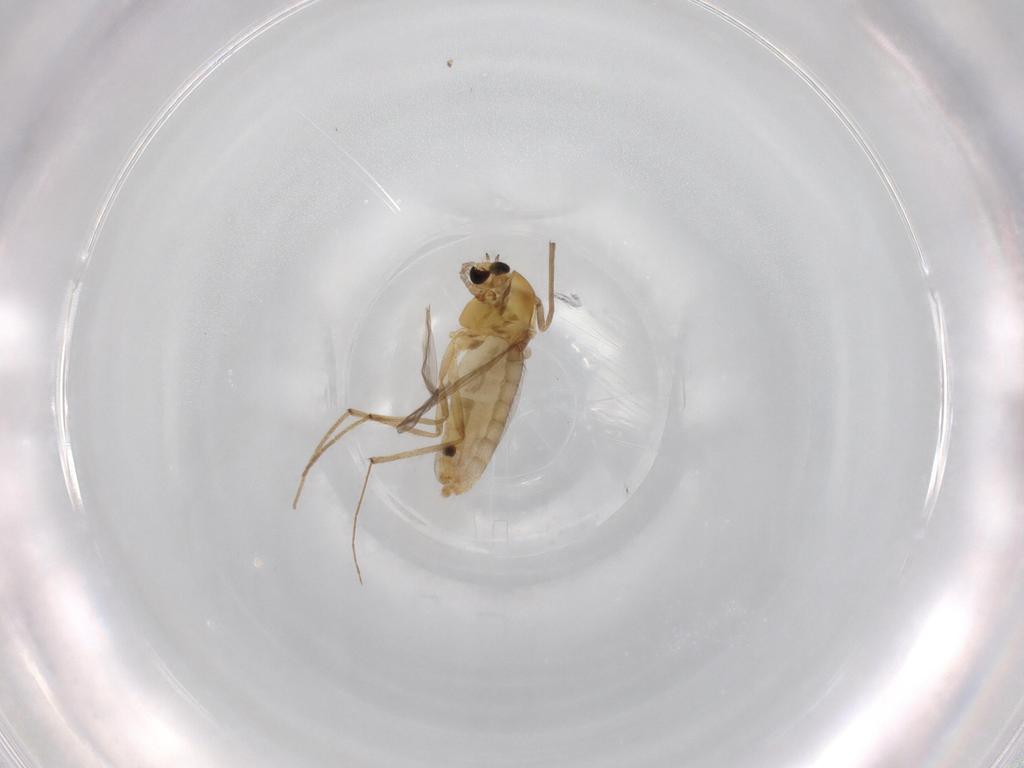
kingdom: Animalia
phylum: Arthropoda
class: Insecta
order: Diptera
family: Chironomidae
